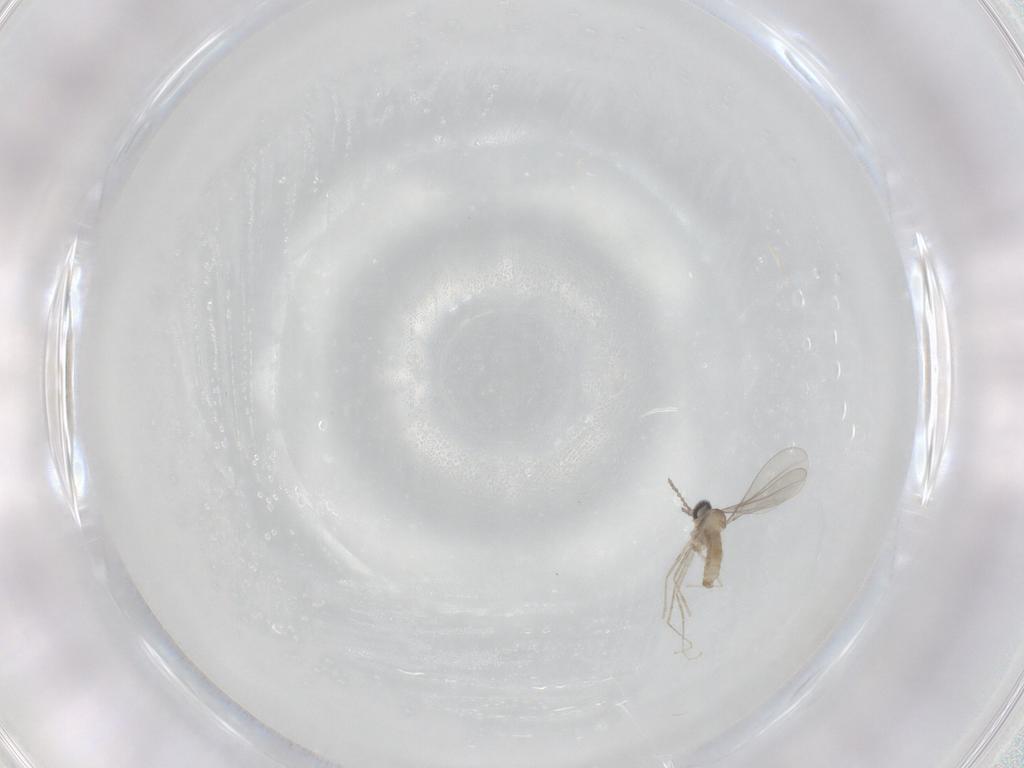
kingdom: Animalia
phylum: Arthropoda
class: Insecta
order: Diptera
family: Cecidomyiidae
